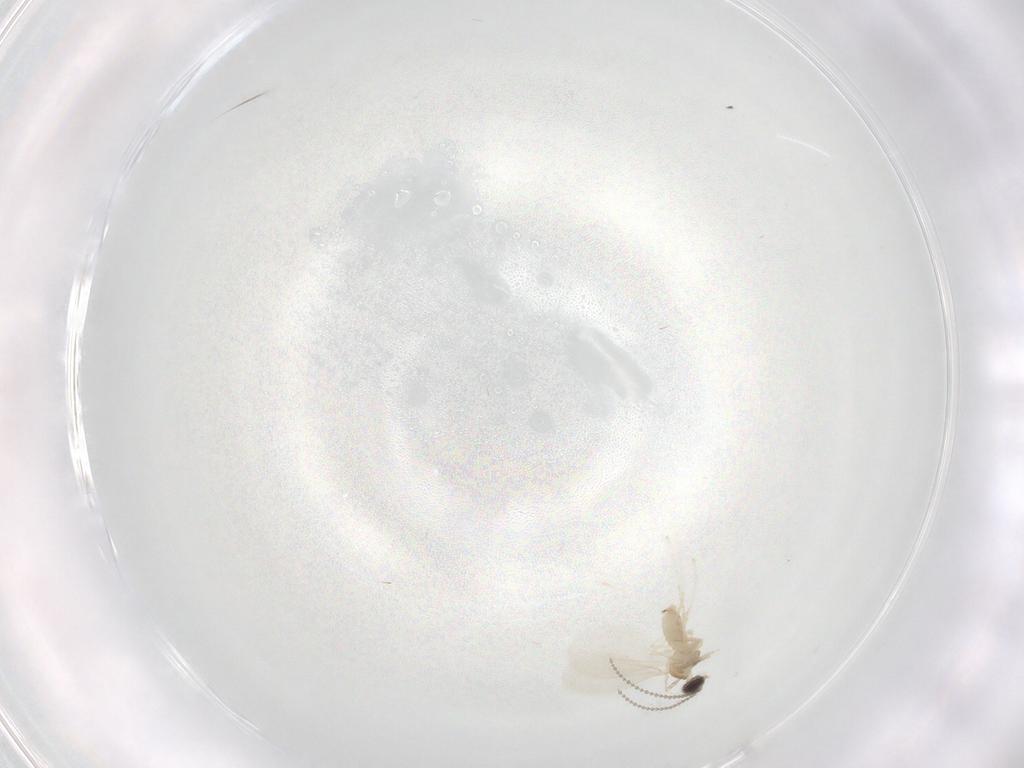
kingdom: Animalia
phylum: Arthropoda
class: Insecta
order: Diptera
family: Cecidomyiidae
